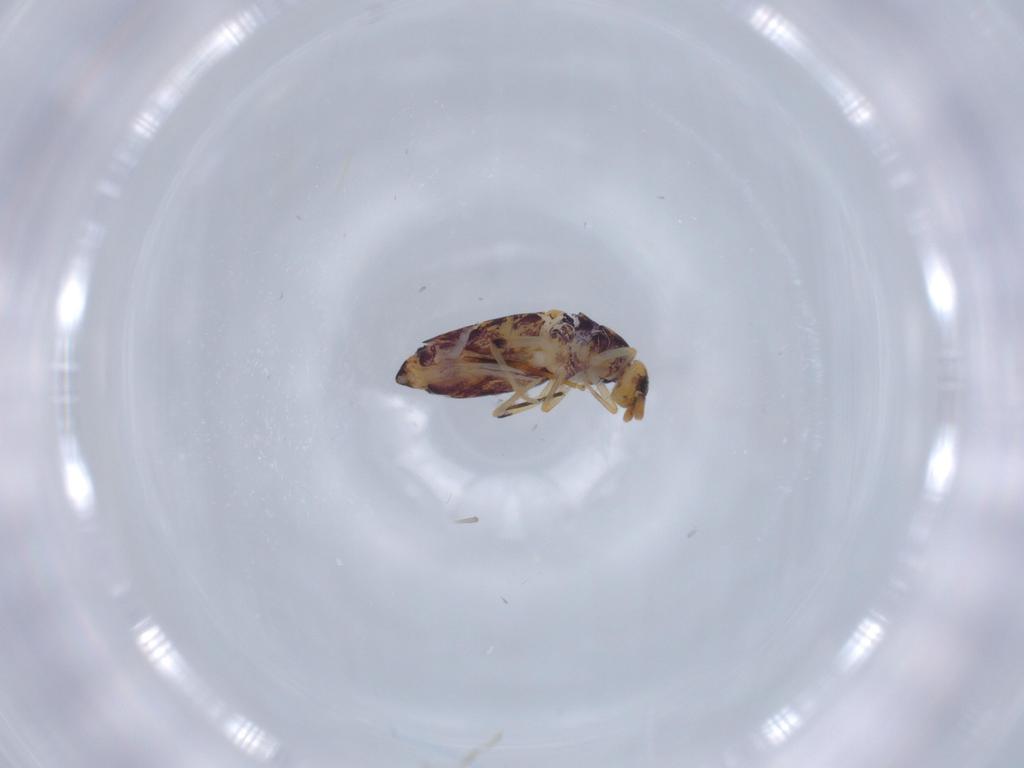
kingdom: Animalia
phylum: Arthropoda
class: Collembola
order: Entomobryomorpha
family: Entomobryidae
